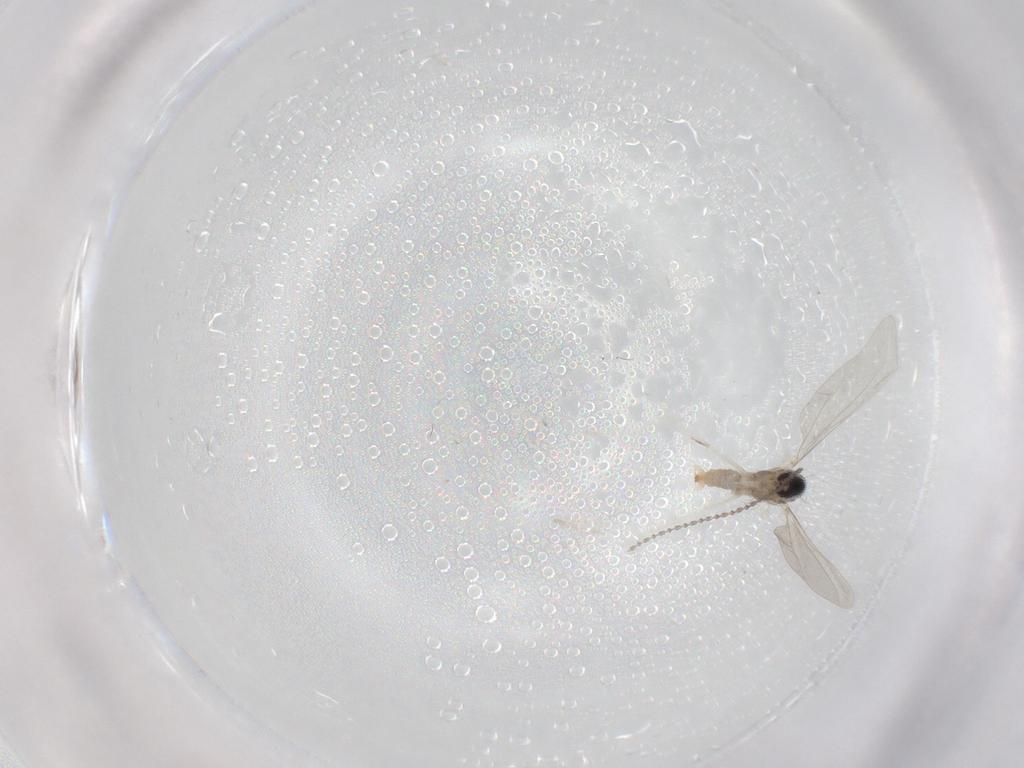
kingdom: Animalia
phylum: Arthropoda
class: Insecta
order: Diptera
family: Cecidomyiidae
